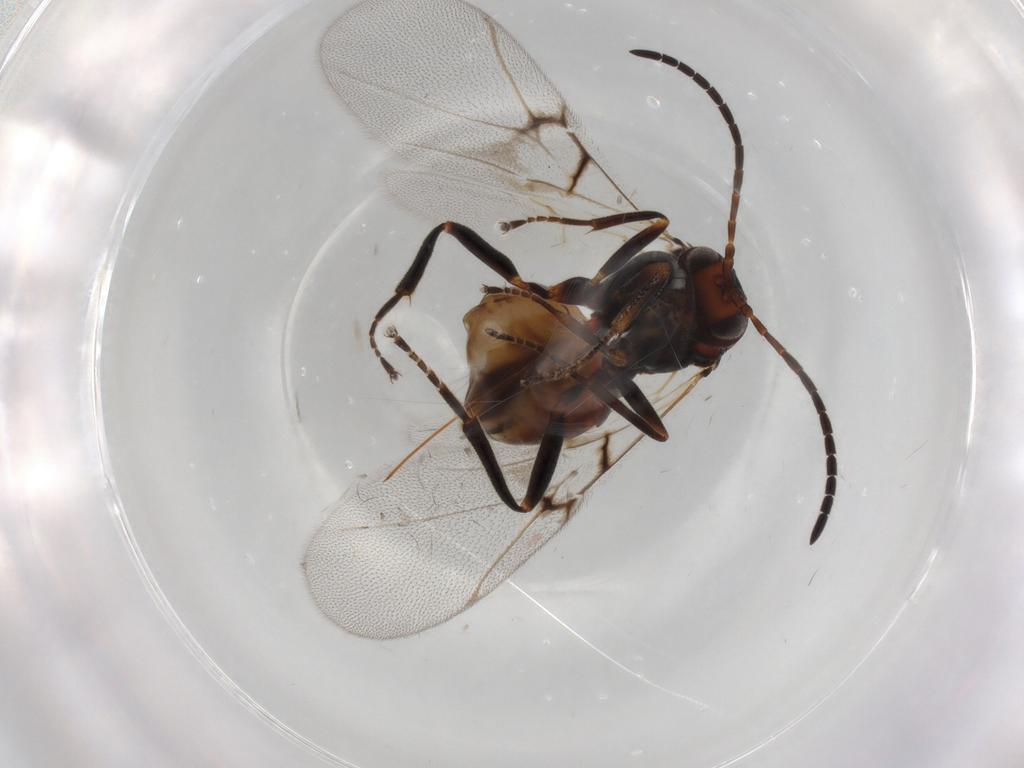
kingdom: Animalia
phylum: Arthropoda
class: Insecta
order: Hymenoptera
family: Cynipidae
